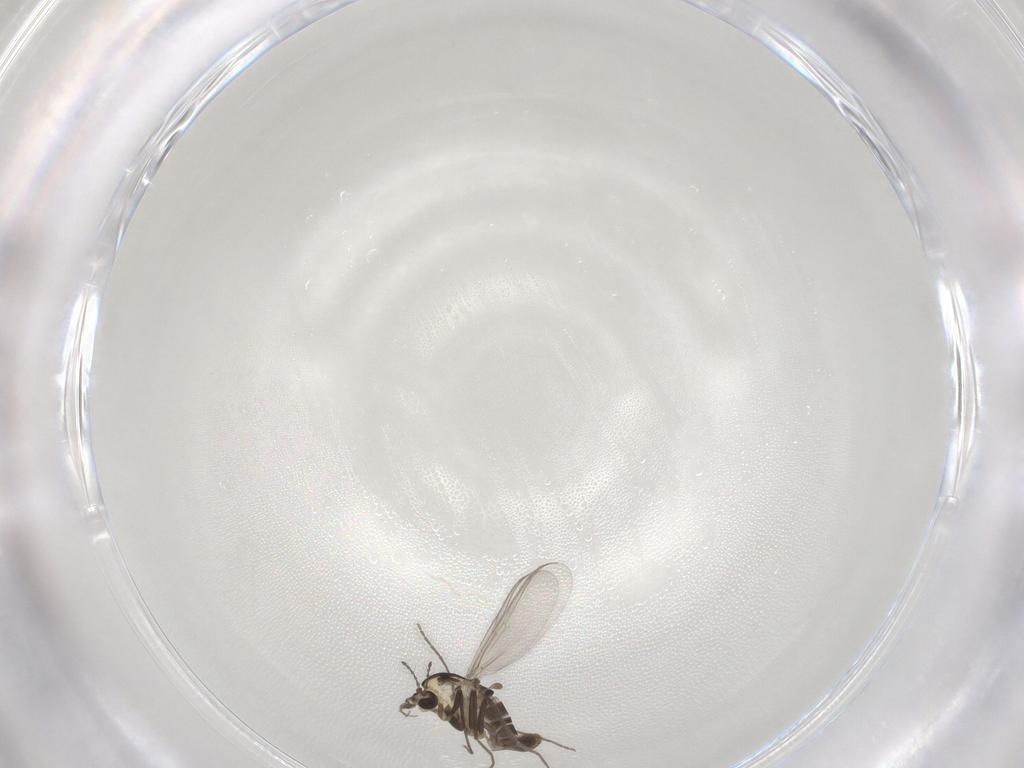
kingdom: Animalia
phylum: Arthropoda
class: Insecta
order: Diptera
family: Chironomidae
